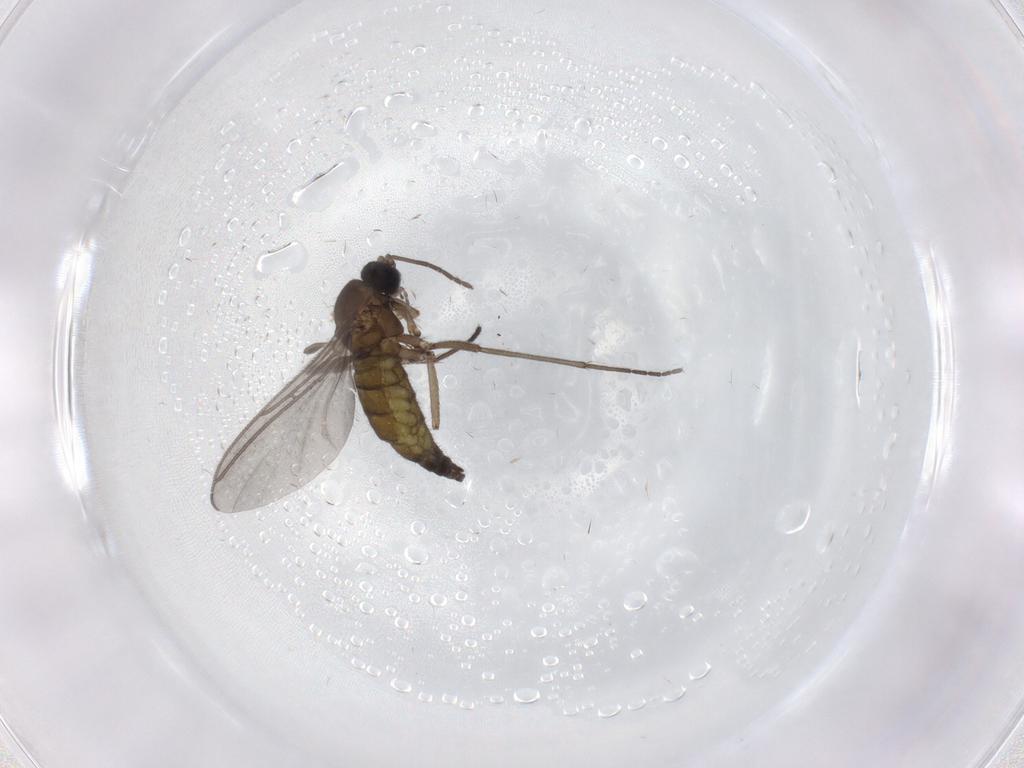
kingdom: Animalia
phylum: Arthropoda
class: Insecta
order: Diptera
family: Sciaridae
